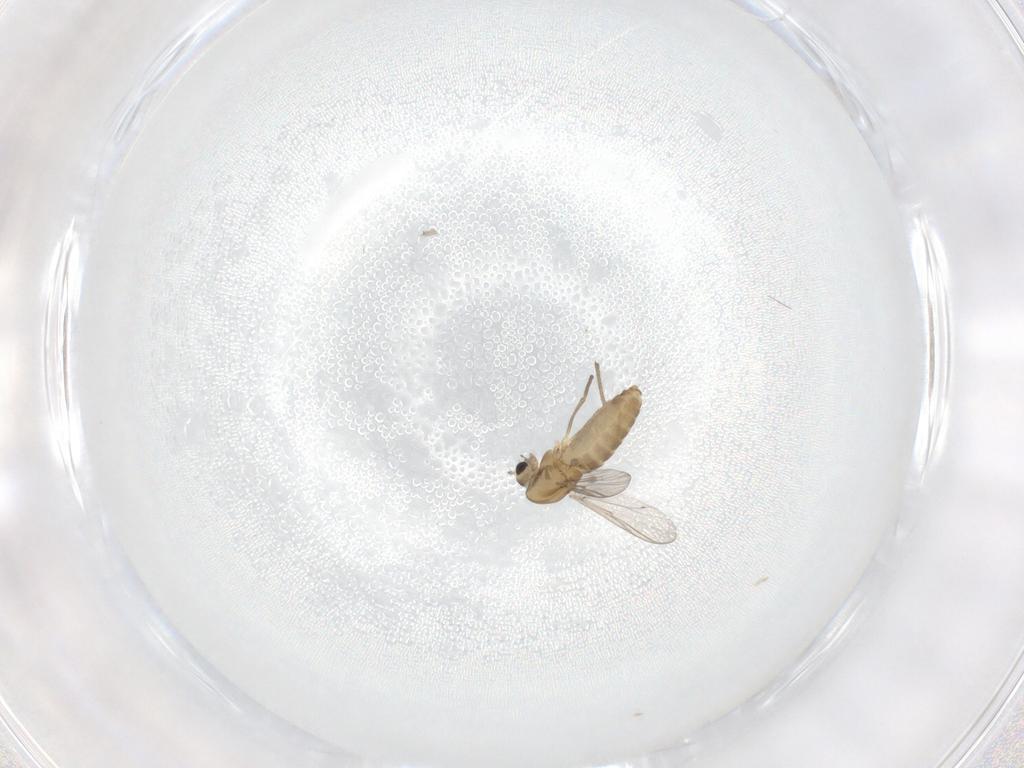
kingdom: Animalia
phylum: Arthropoda
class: Insecta
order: Diptera
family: Chironomidae
